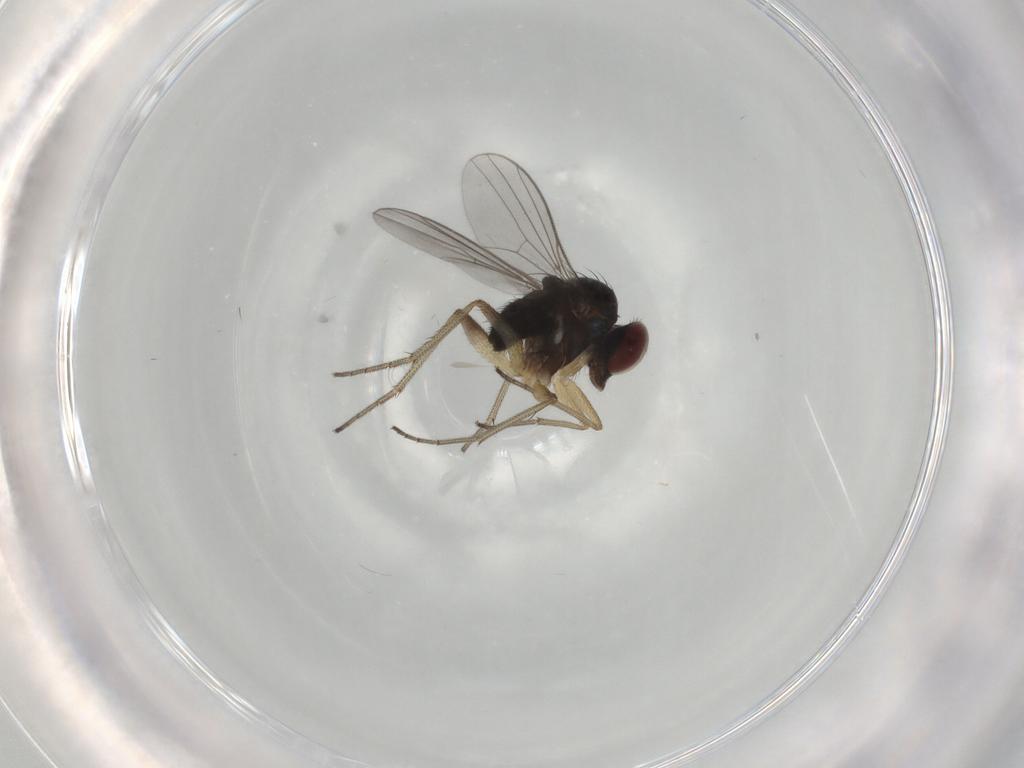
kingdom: Animalia
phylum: Arthropoda
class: Insecta
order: Diptera
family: Dolichopodidae
